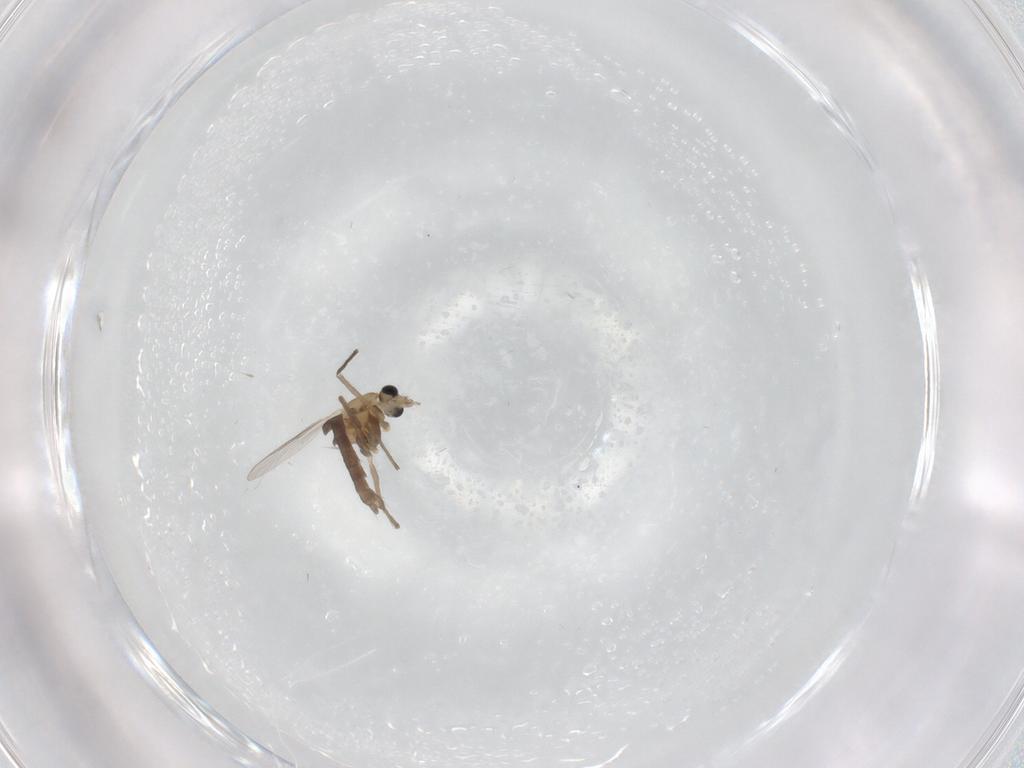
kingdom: Animalia
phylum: Arthropoda
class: Insecta
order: Diptera
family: Chironomidae
